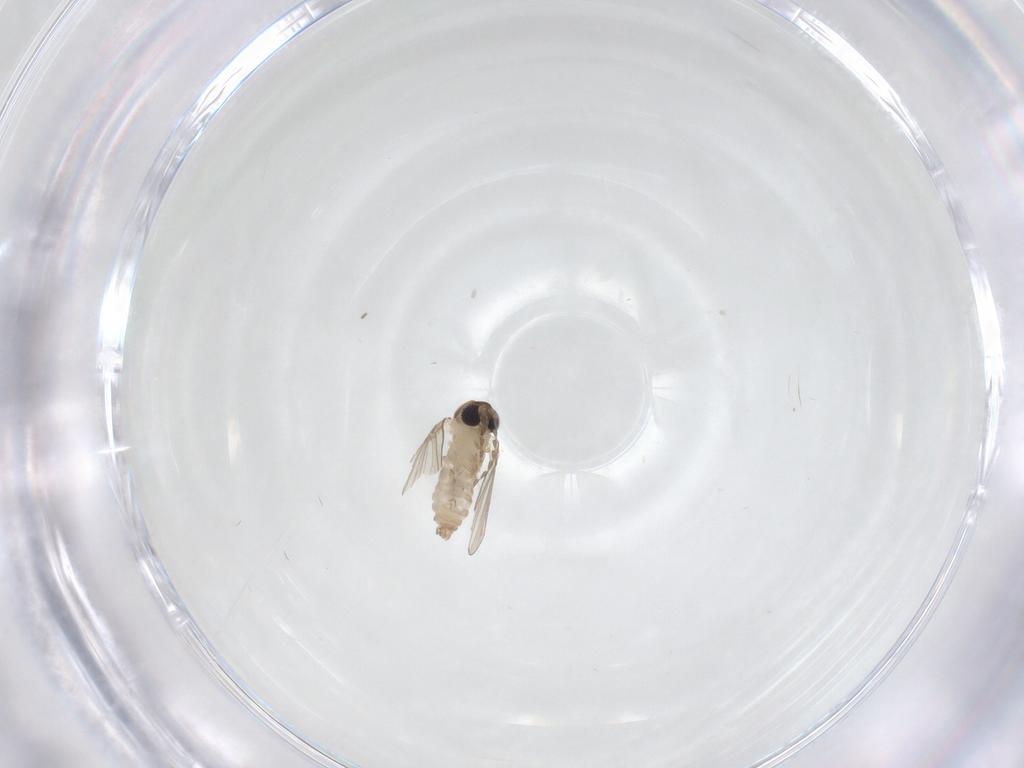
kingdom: Animalia
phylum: Arthropoda
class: Insecta
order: Diptera
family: Psychodidae
